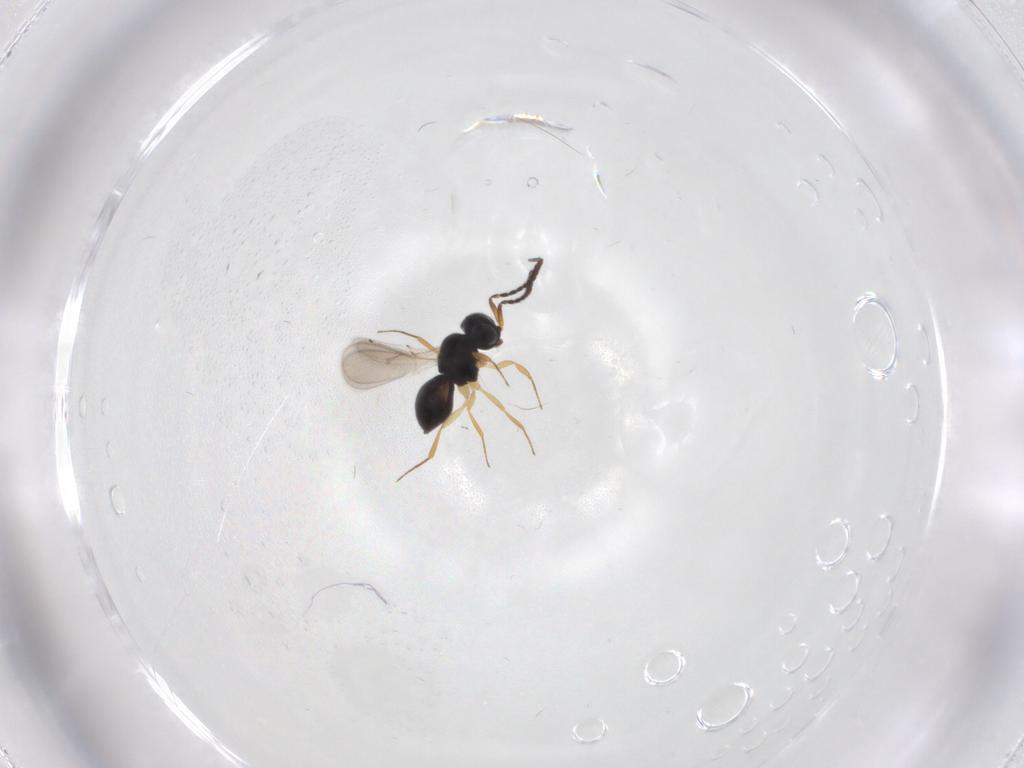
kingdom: Animalia
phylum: Arthropoda
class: Insecta
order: Hymenoptera
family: Scelionidae
